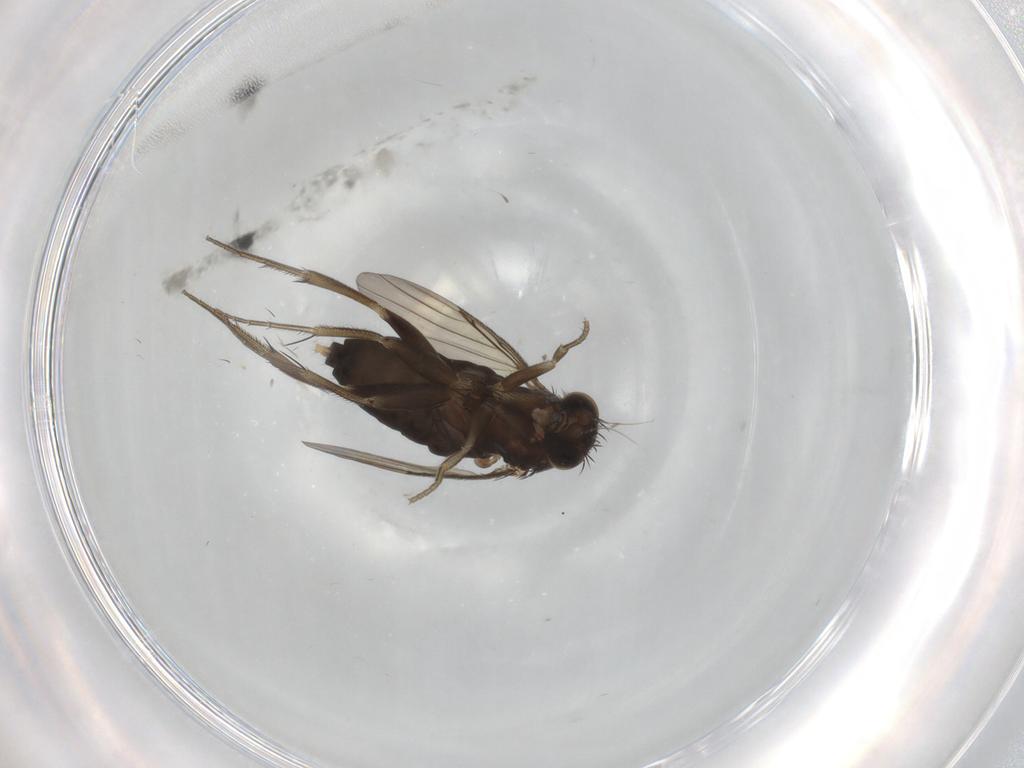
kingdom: Animalia
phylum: Arthropoda
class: Insecta
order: Diptera
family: Phoridae
